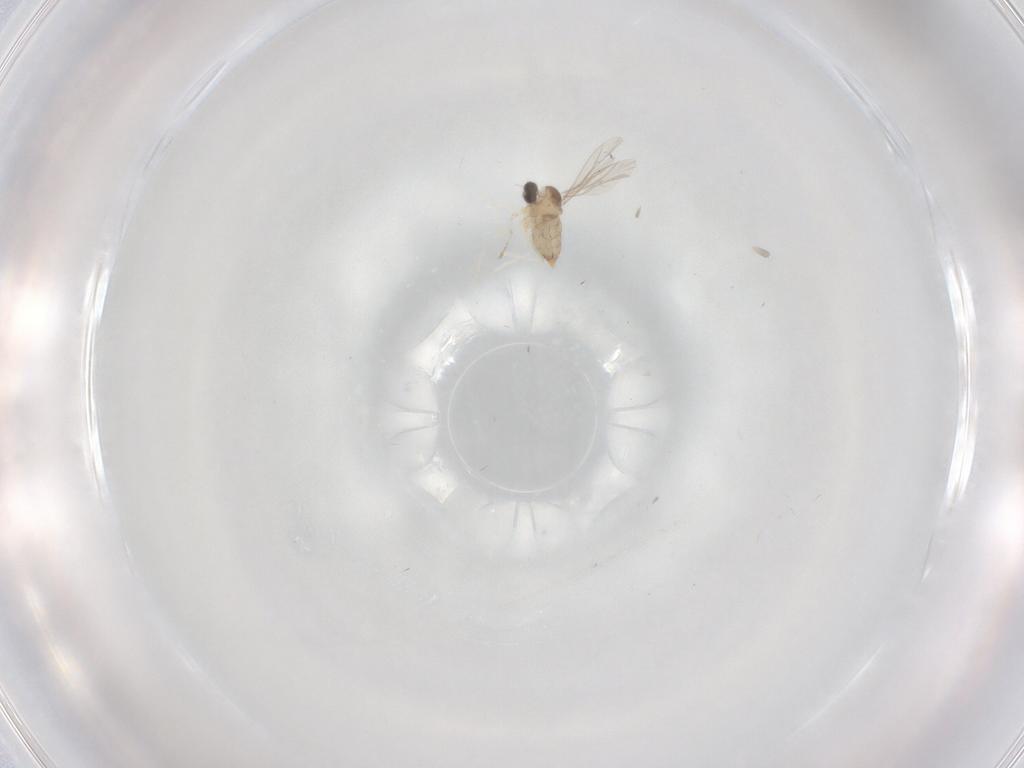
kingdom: Animalia
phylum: Arthropoda
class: Insecta
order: Diptera
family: Cecidomyiidae
